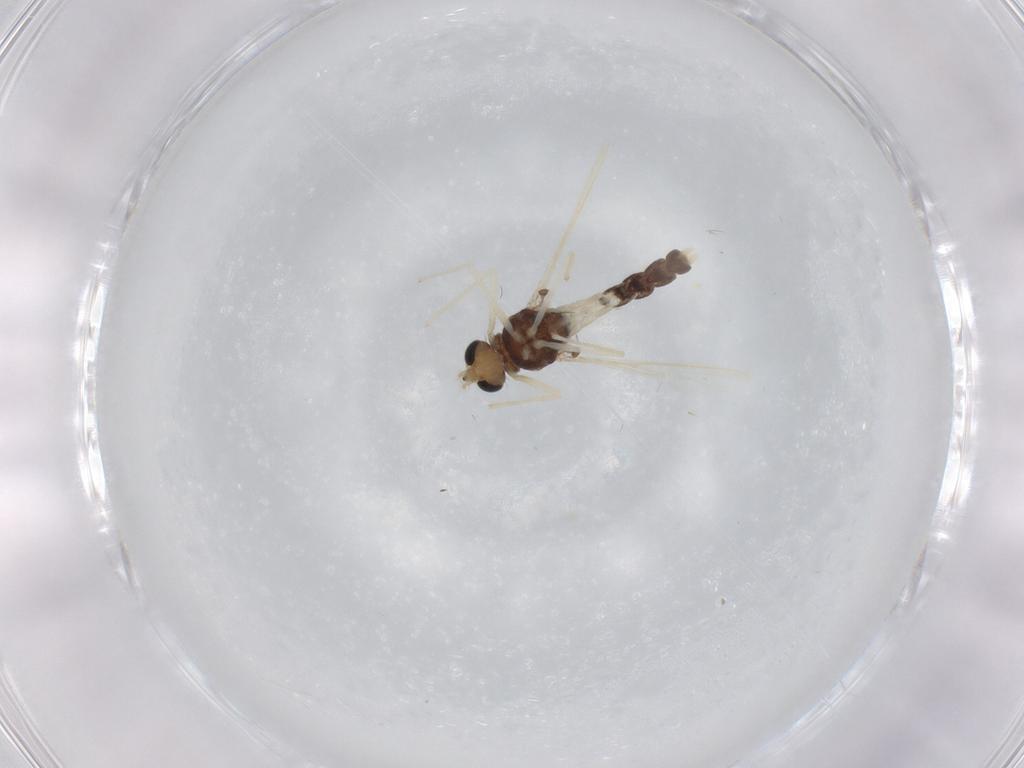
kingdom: Animalia
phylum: Arthropoda
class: Insecta
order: Diptera
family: Chironomidae
